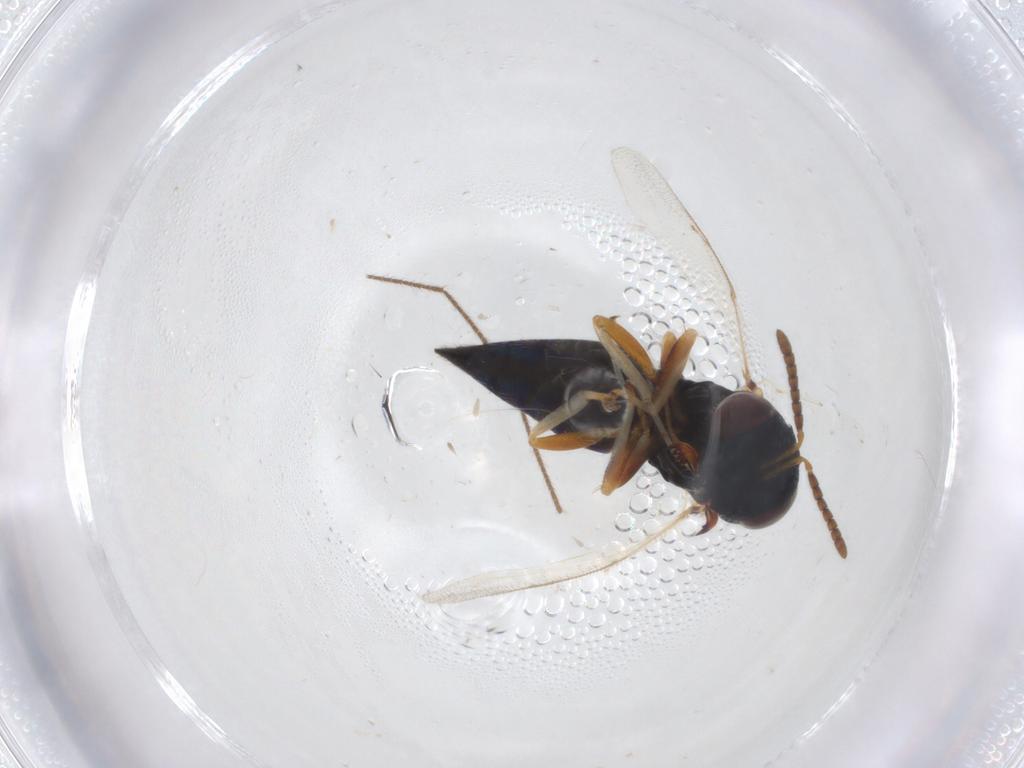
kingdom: Animalia
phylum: Arthropoda
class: Insecta
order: Hymenoptera
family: Pteromalidae
